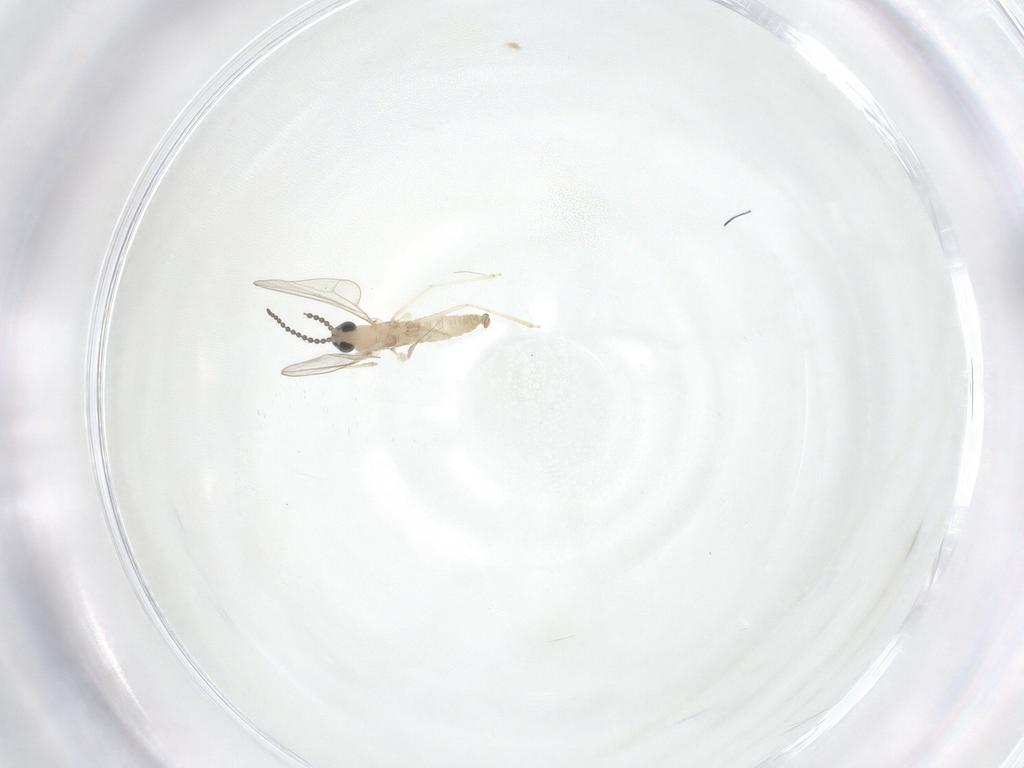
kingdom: Animalia
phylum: Arthropoda
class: Insecta
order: Diptera
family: Cecidomyiidae
